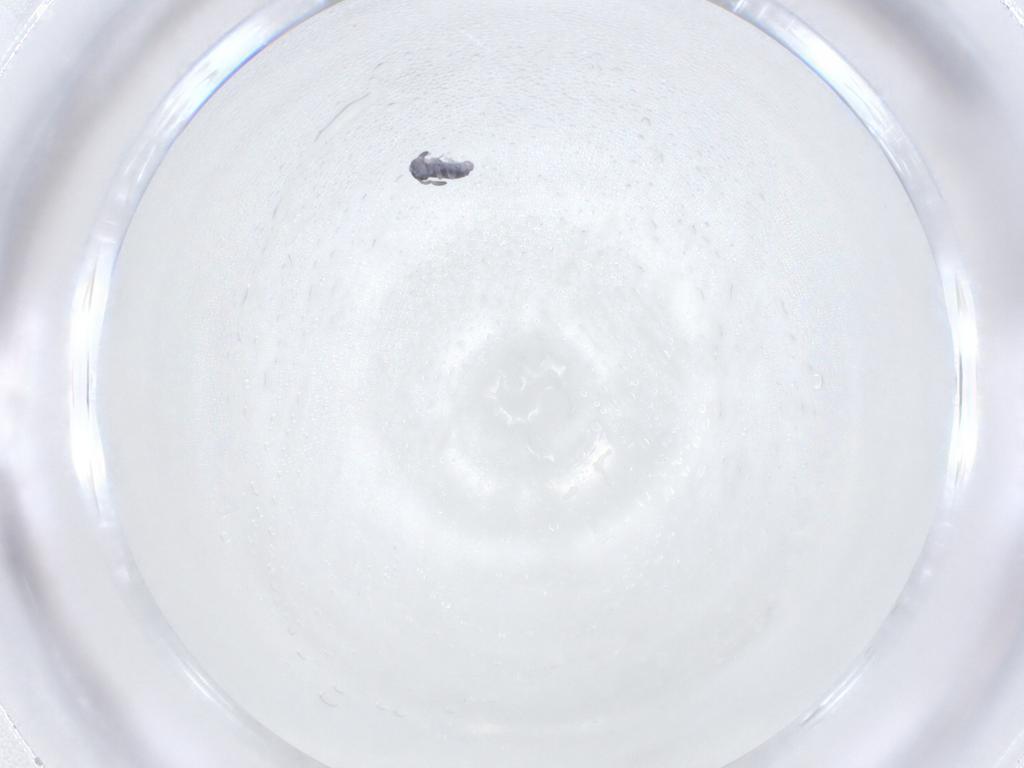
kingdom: Animalia
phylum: Arthropoda
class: Collembola
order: Symphypleona
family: Katiannidae
